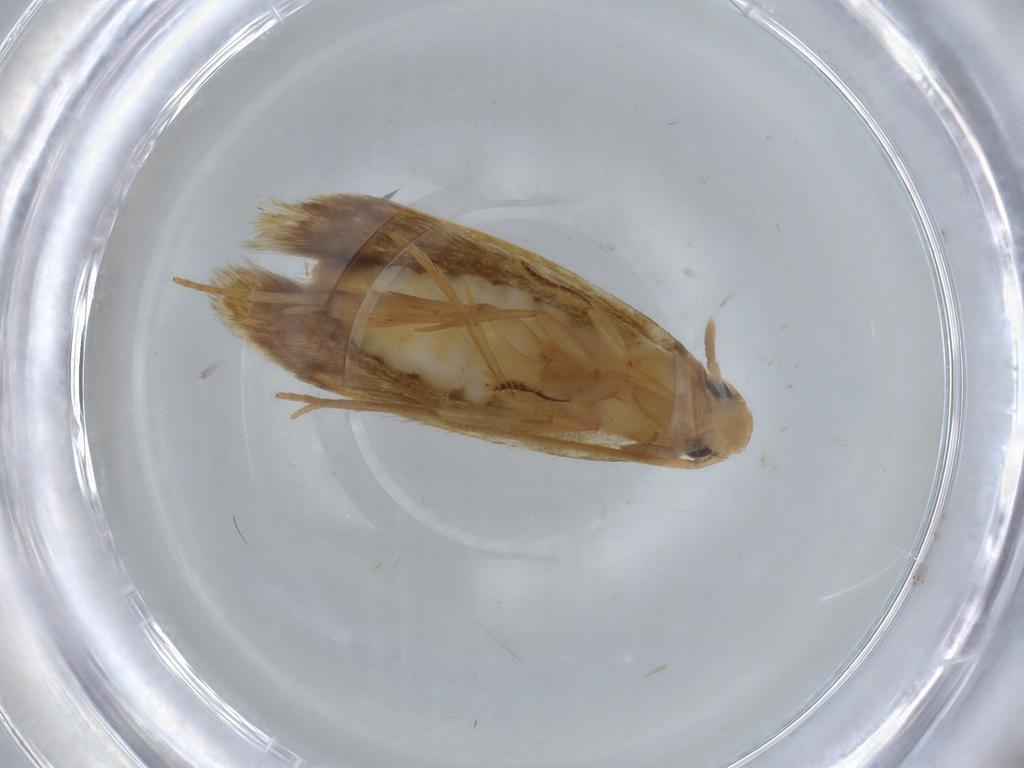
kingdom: Animalia
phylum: Arthropoda
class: Insecta
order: Lepidoptera
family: Tineidae
